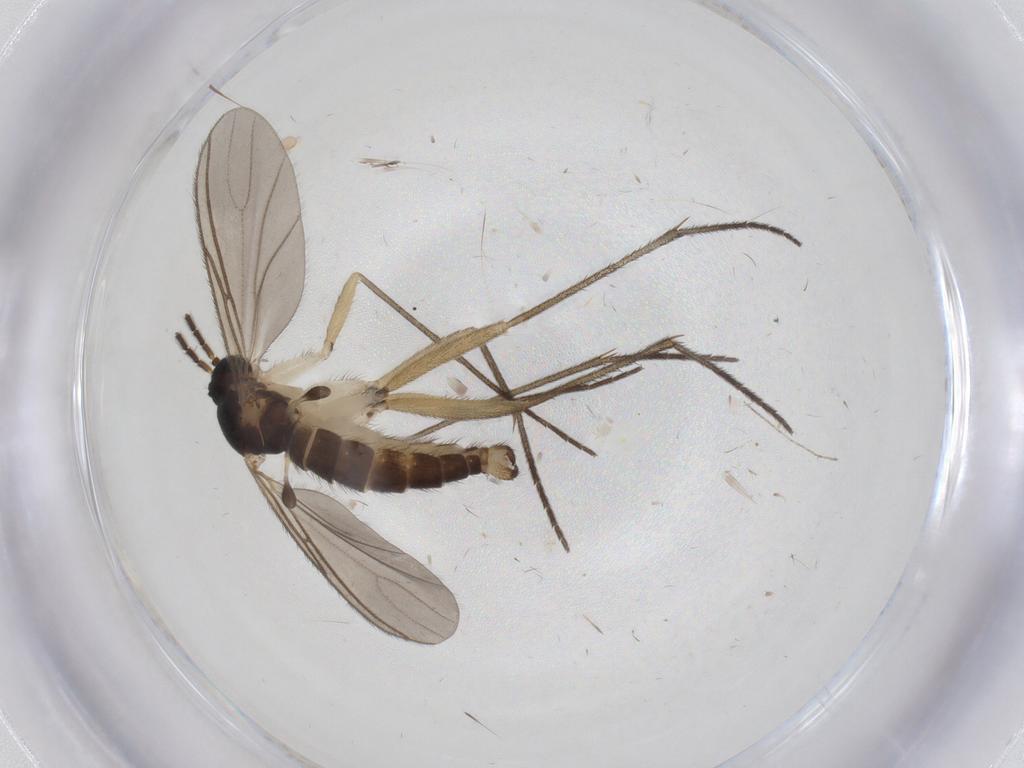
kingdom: Animalia
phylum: Arthropoda
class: Insecta
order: Diptera
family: Sciaridae
